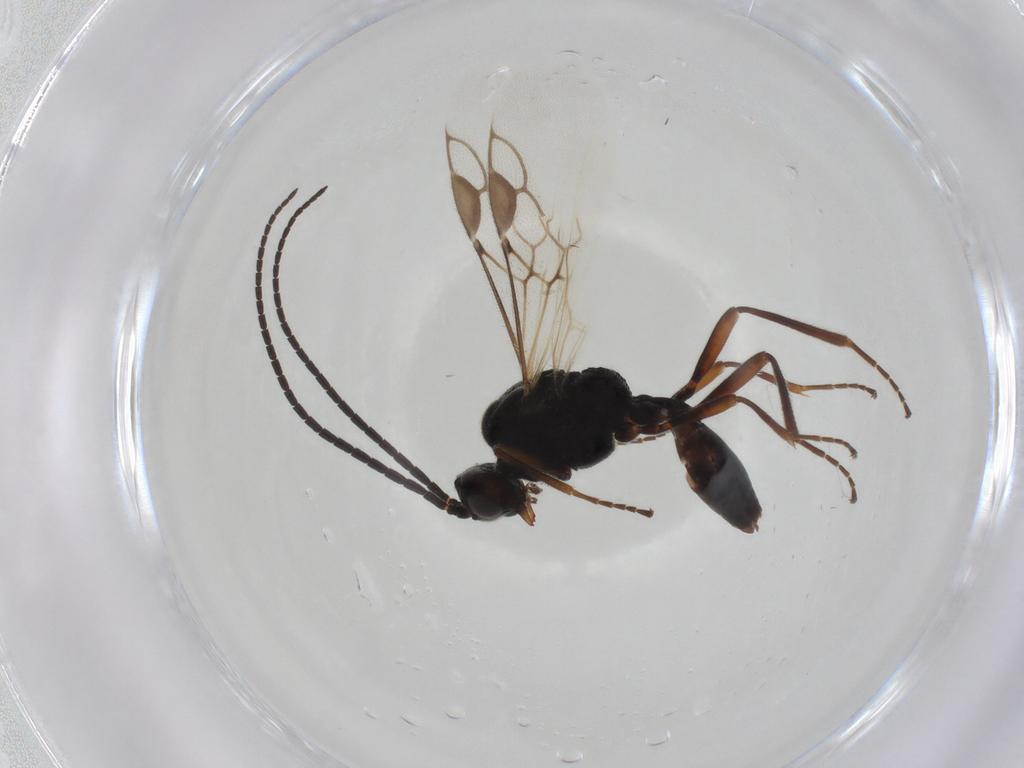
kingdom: Animalia
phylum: Arthropoda
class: Insecta
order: Hymenoptera
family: Braconidae
